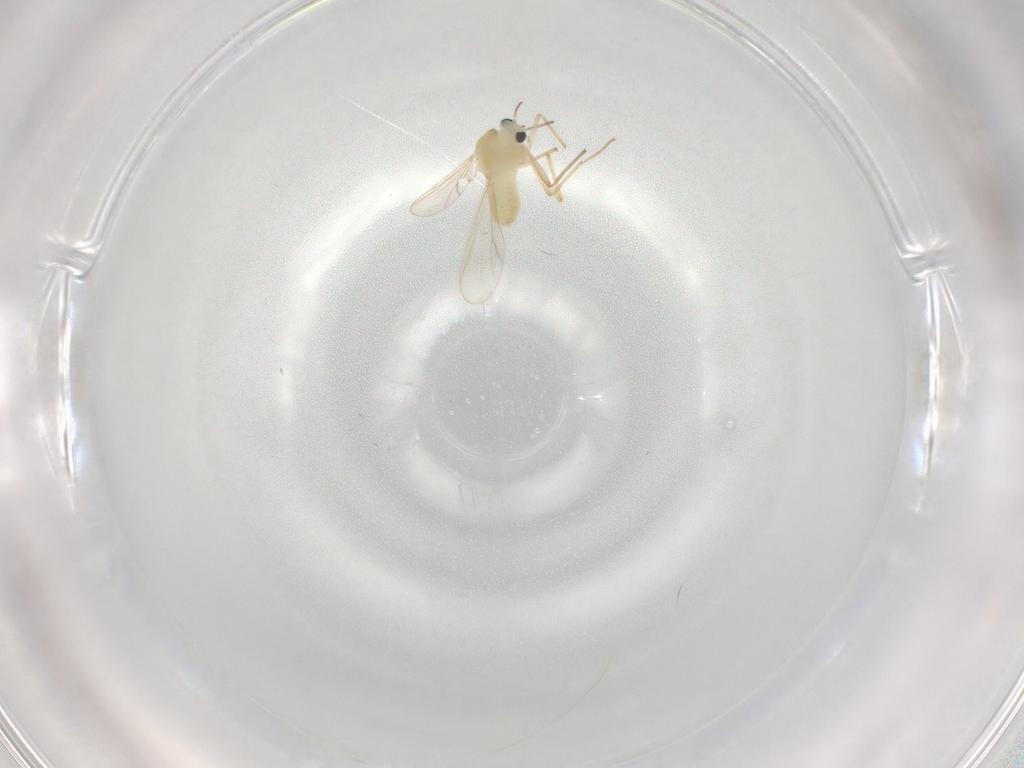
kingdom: Animalia
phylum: Arthropoda
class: Insecta
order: Diptera
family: Chironomidae
